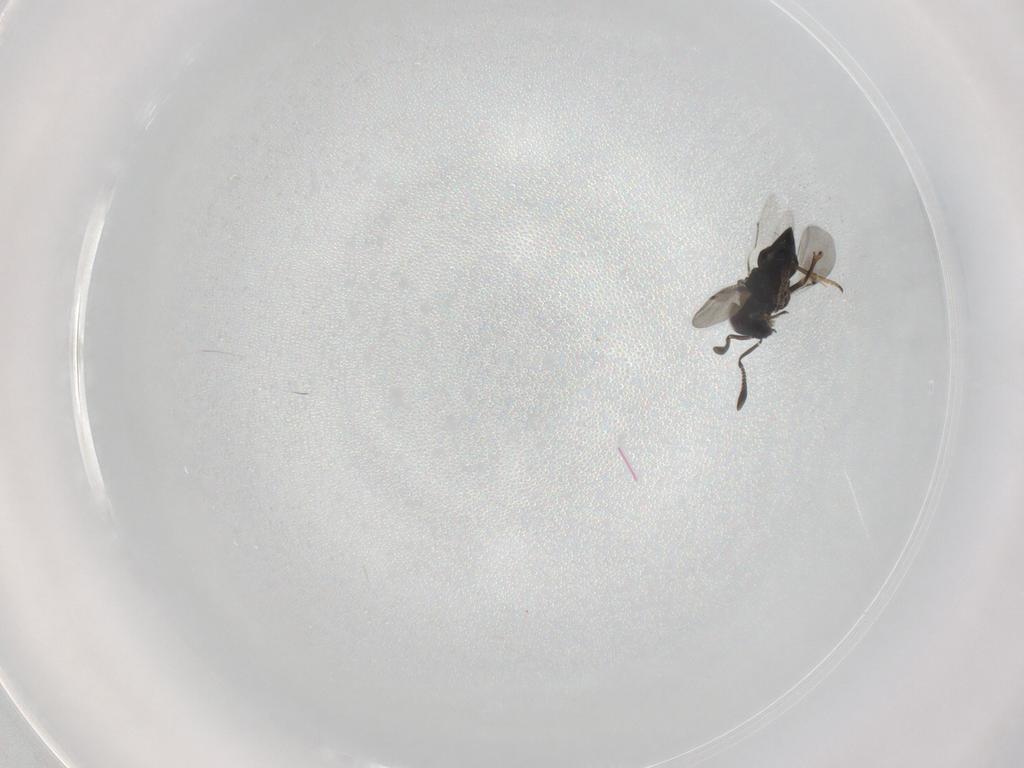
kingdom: Animalia
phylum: Arthropoda
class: Insecta
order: Hymenoptera
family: Encyrtidae
